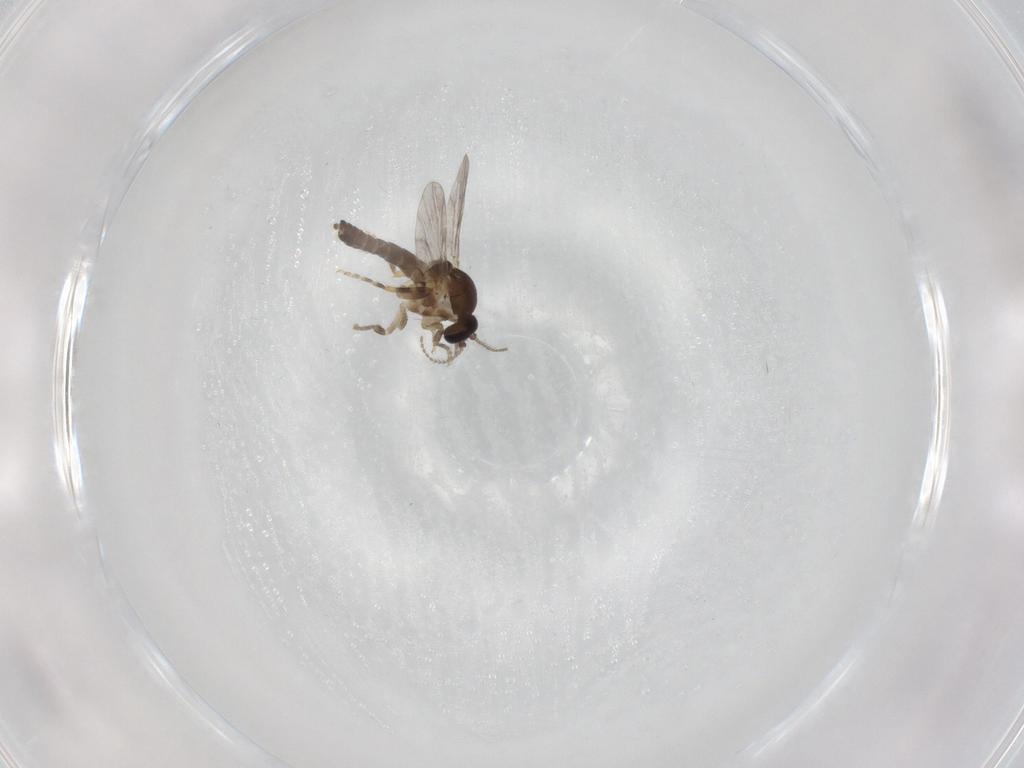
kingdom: Animalia
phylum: Arthropoda
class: Insecta
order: Diptera
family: Ceratopogonidae
